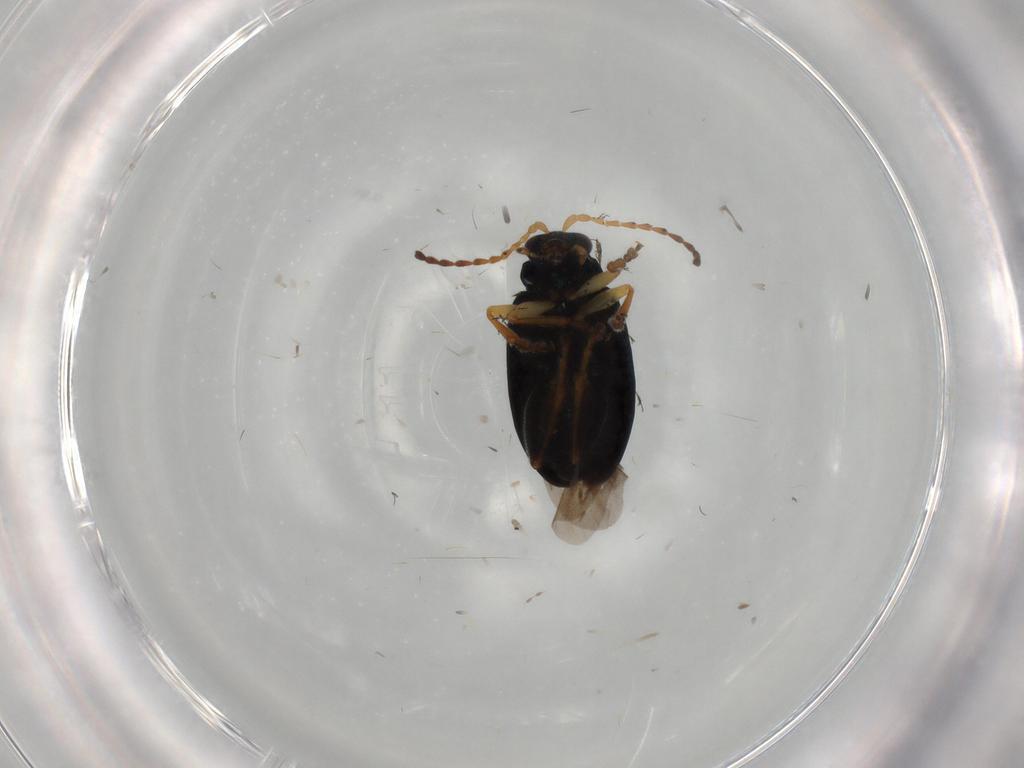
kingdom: Animalia
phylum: Arthropoda
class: Insecta
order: Coleoptera
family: Chrysomelidae
